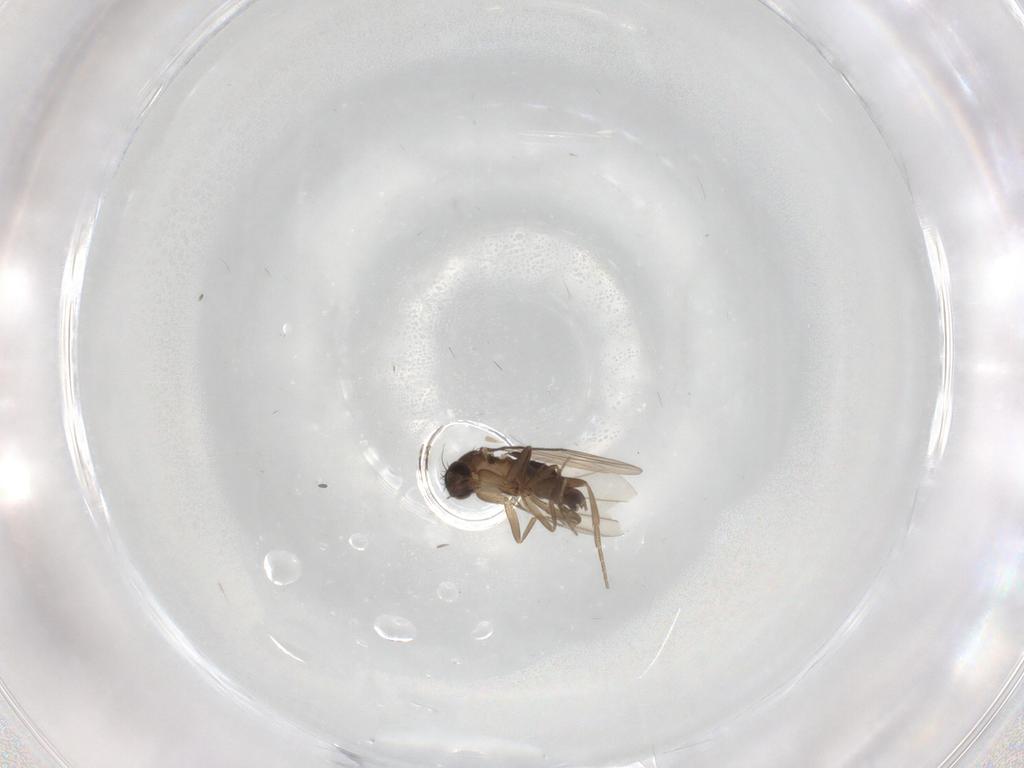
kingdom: Animalia
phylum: Arthropoda
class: Insecta
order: Diptera
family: Phoridae
